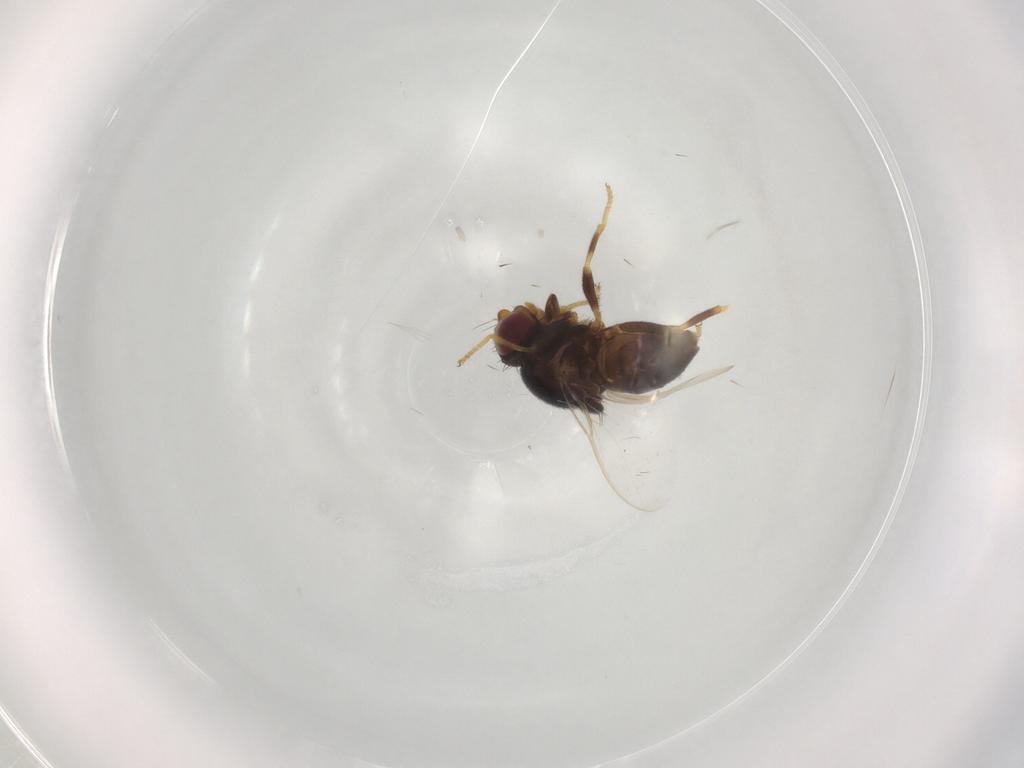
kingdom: Animalia
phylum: Arthropoda
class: Insecta
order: Diptera
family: Chloropidae
